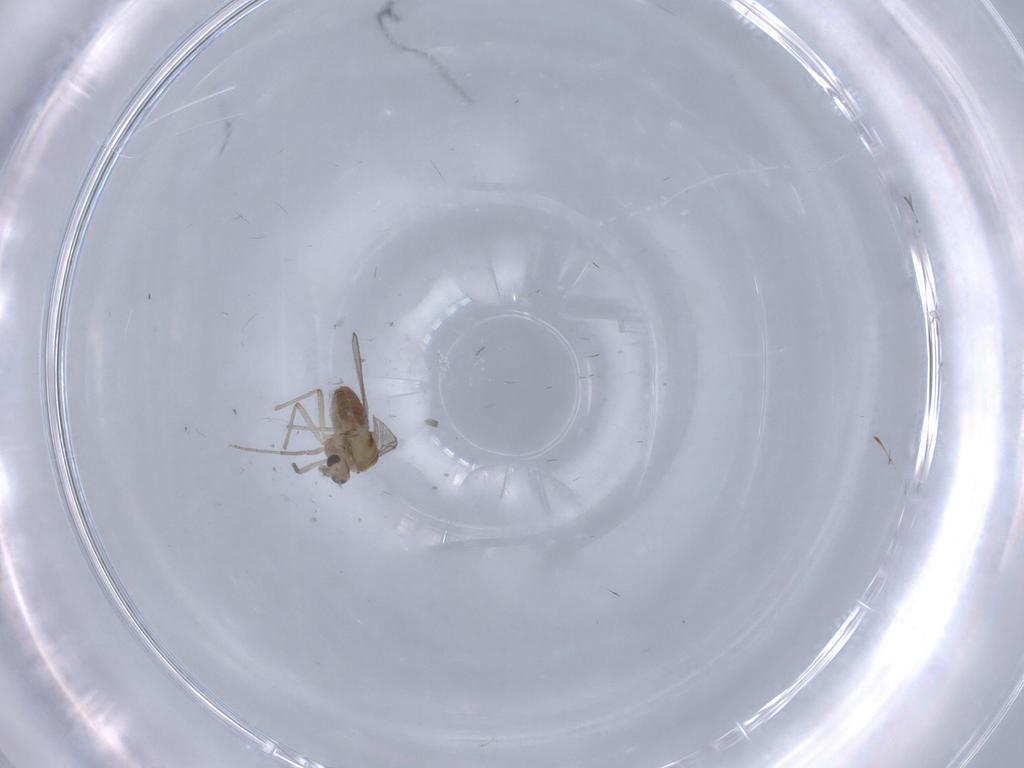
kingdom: Animalia
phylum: Arthropoda
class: Insecta
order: Diptera
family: Chironomidae
